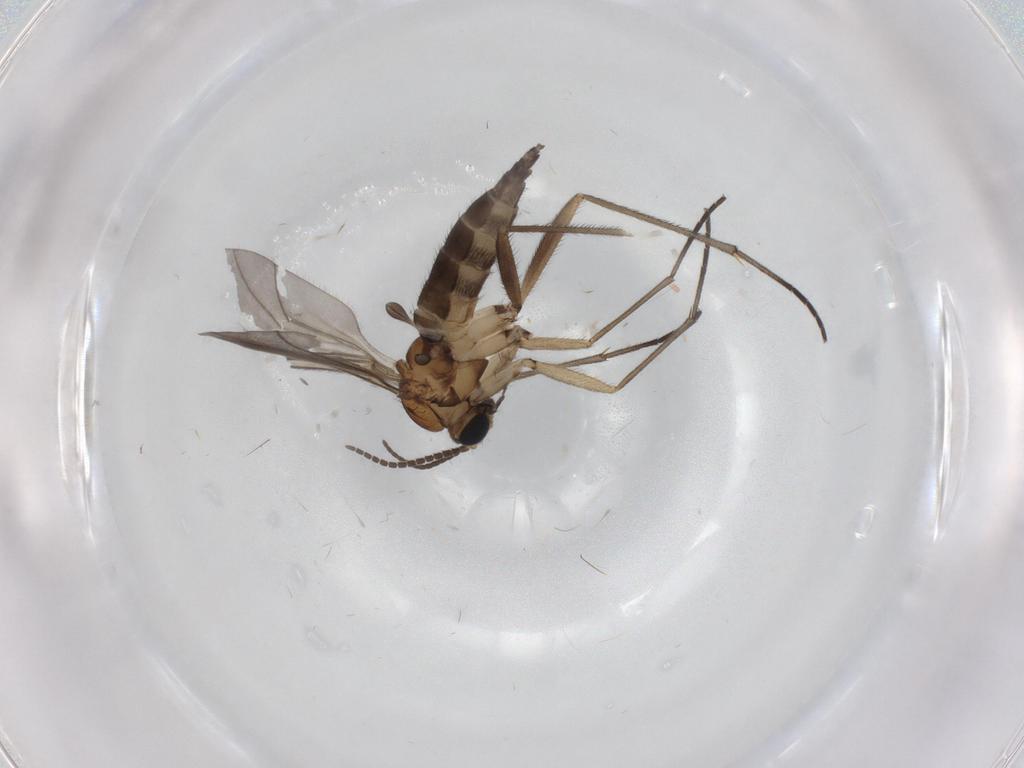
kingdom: Animalia
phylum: Arthropoda
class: Insecta
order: Diptera
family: Sciaridae
